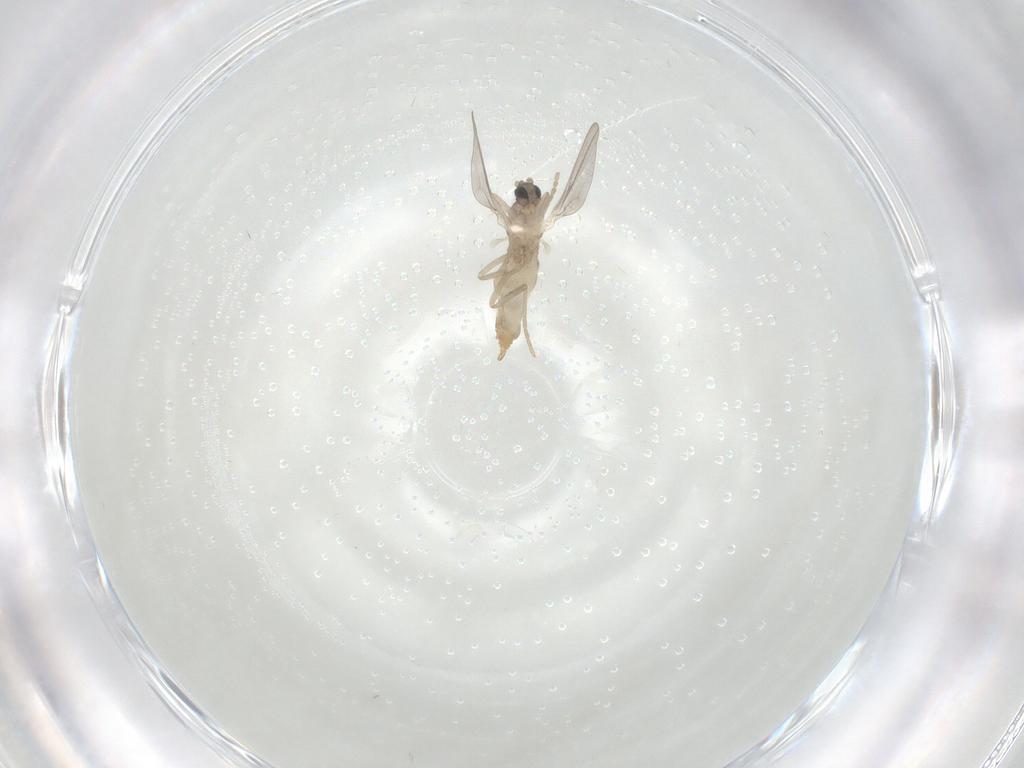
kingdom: Animalia
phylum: Arthropoda
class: Insecta
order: Diptera
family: Cecidomyiidae
